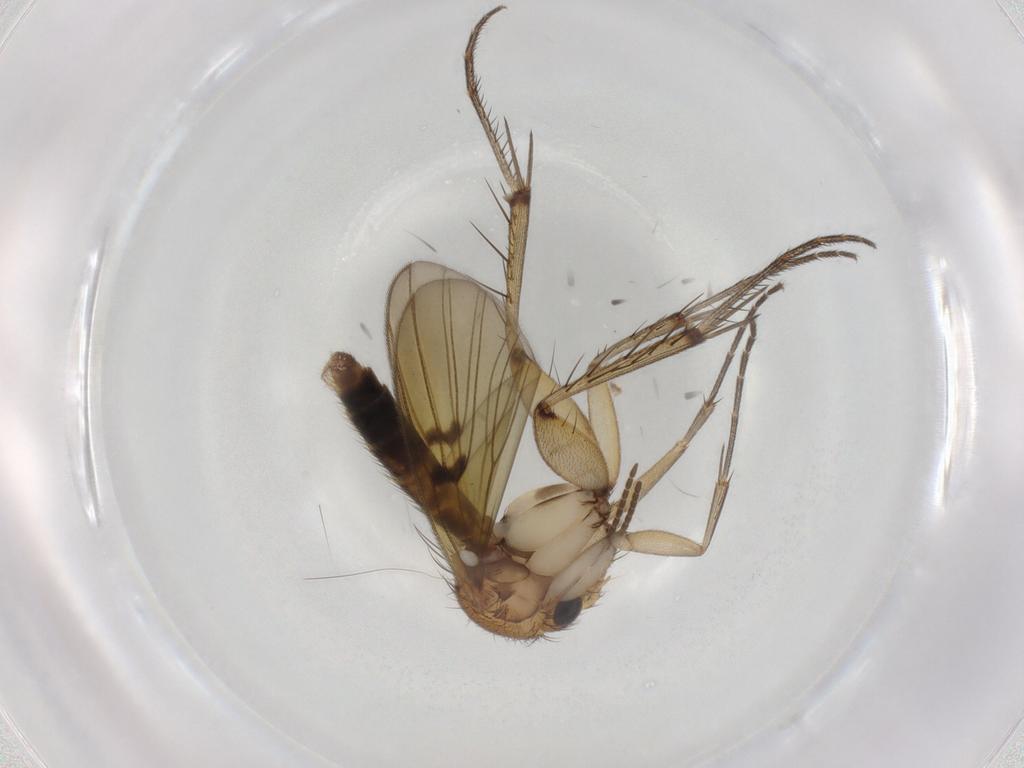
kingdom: Animalia
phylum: Arthropoda
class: Insecta
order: Diptera
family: Mycetophilidae
